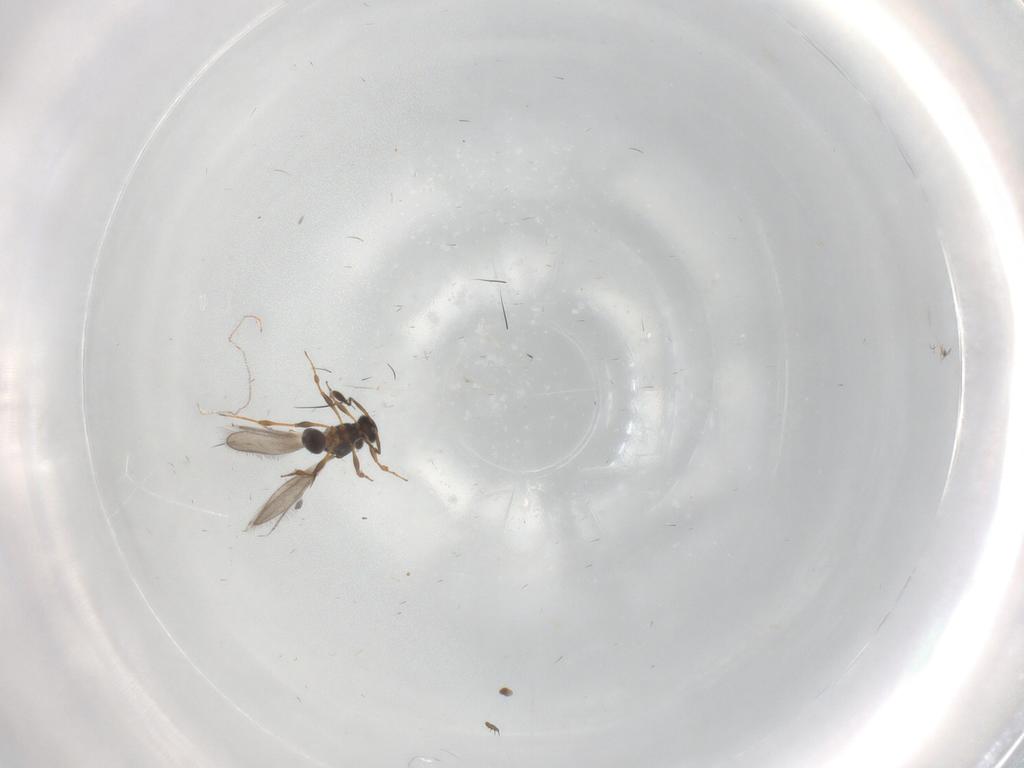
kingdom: Animalia
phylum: Arthropoda
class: Insecta
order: Hymenoptera
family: Platygastridae
